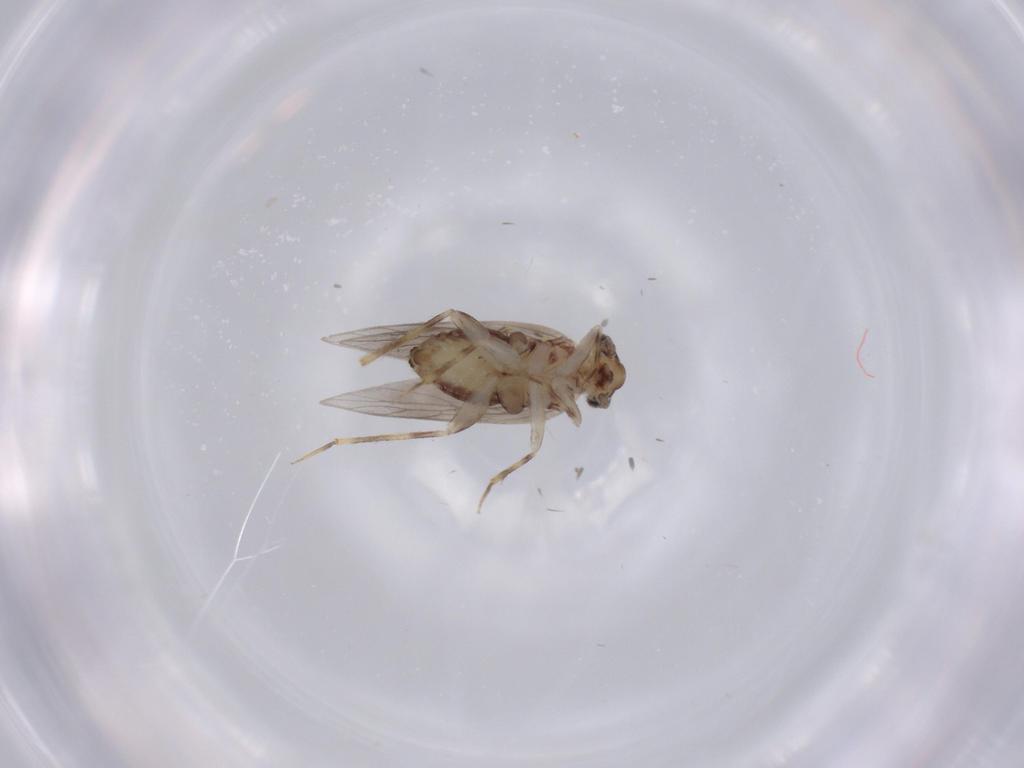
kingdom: Animalia
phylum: Arthropoda
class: Insecta
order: Psocodea
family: Lepidopsocidae
